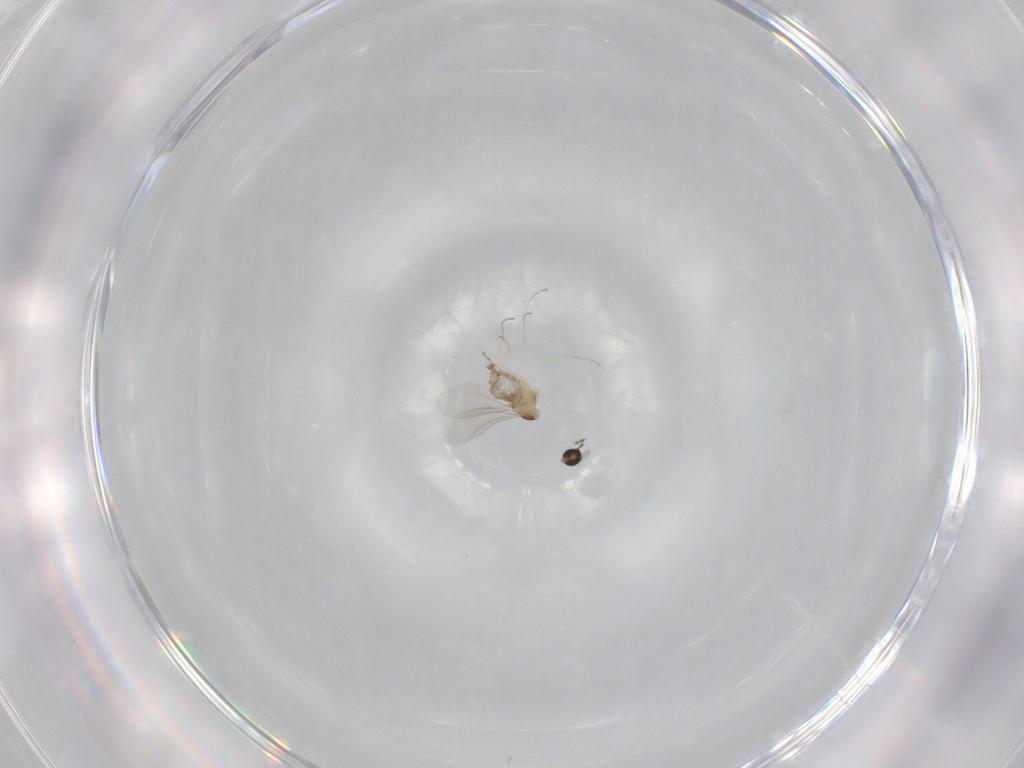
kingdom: Animalia
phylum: Arthropoda
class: Insecta
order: Diptera
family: Cecidomyiidae
